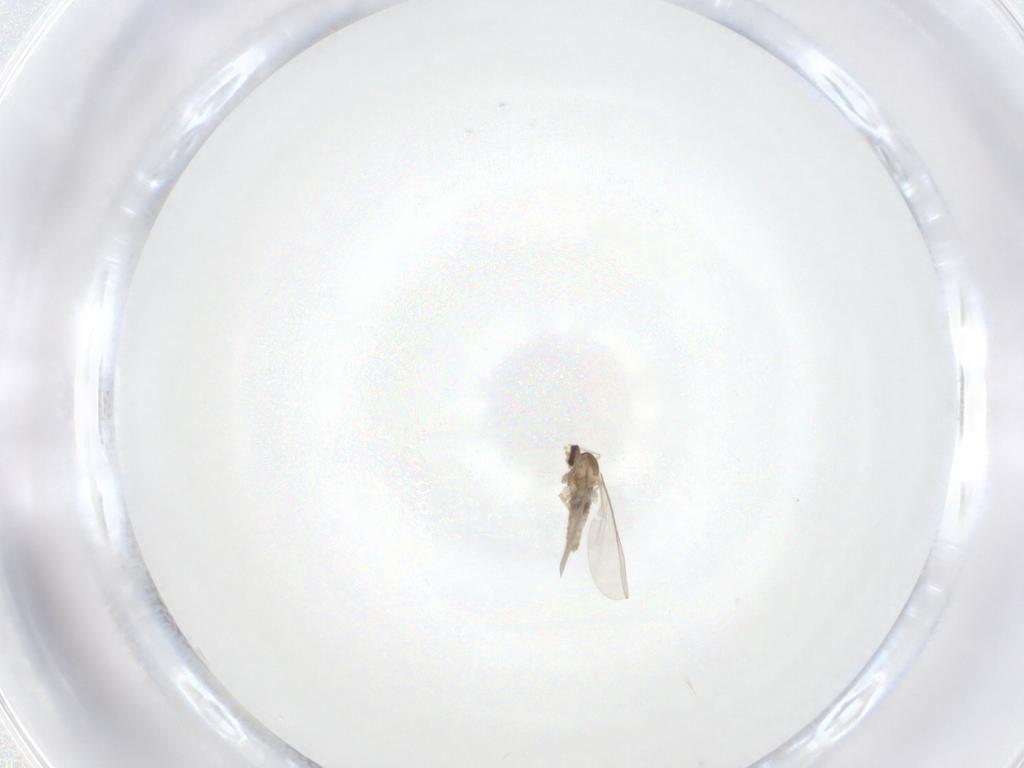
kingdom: Animalia
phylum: Arthropoda
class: Insecta
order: Diptera
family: Cecidomyiidae
